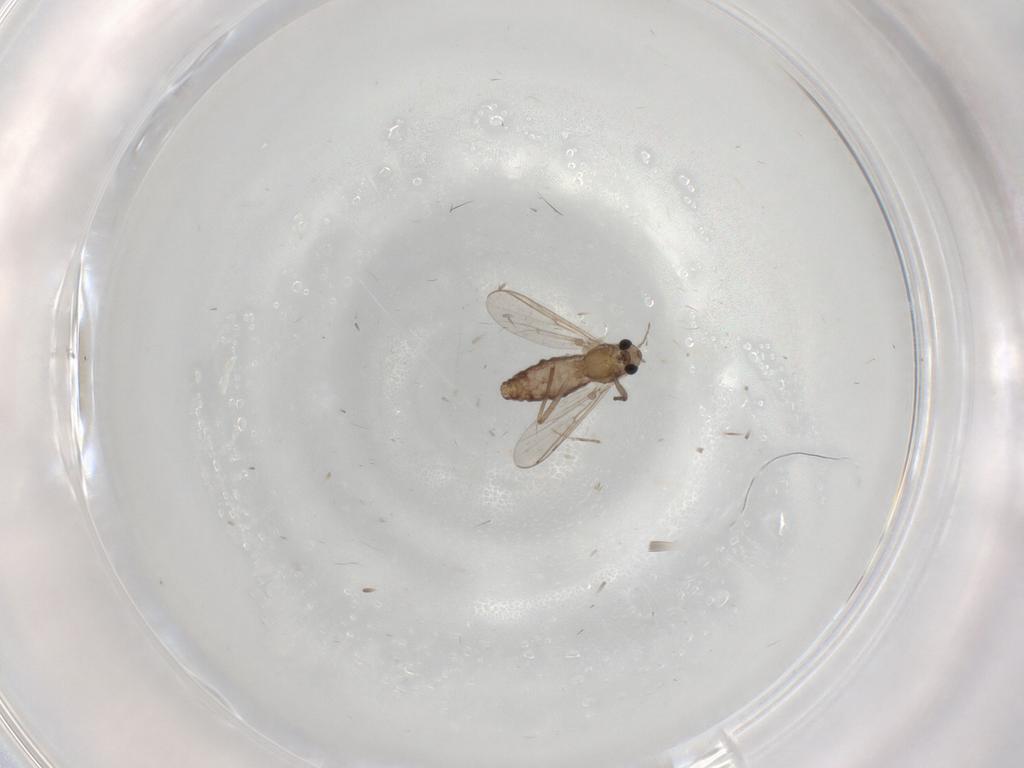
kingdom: Animalia
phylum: Arthropoda
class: Insecta
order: Diptera
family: Chironomidae
